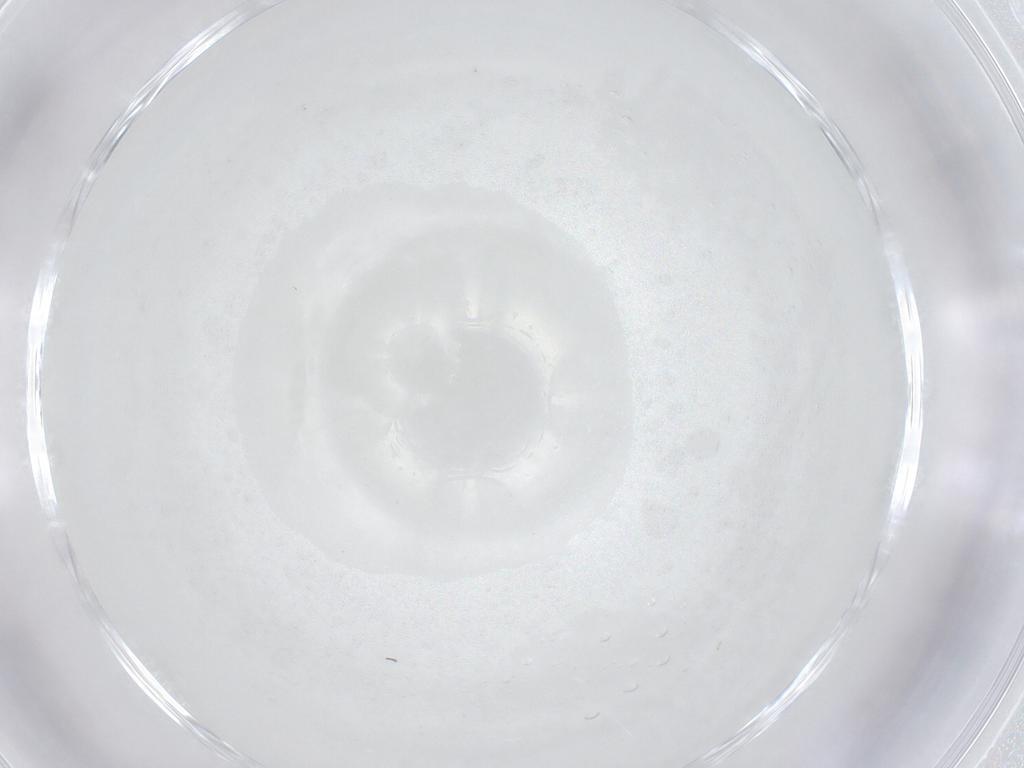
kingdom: Animalia
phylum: Arthropoda
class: Insecta
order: Diptera
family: Cecidomyiidae
